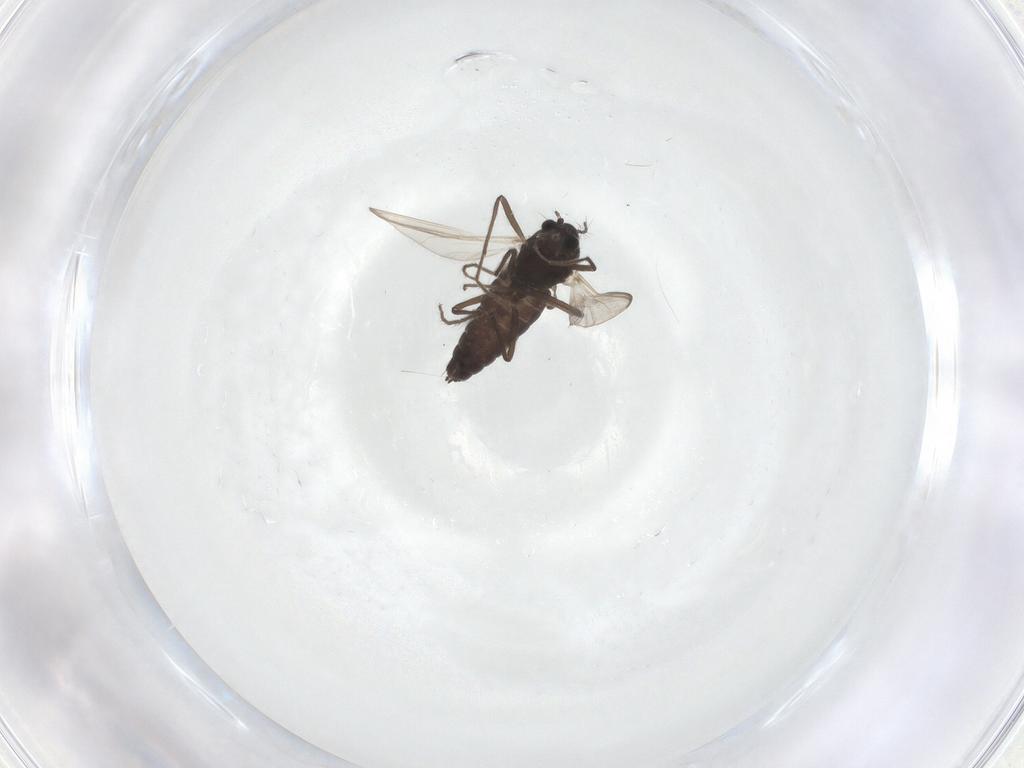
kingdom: Animalia
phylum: Arthropoda
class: Insecta
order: Diptera
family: Chironomidae
